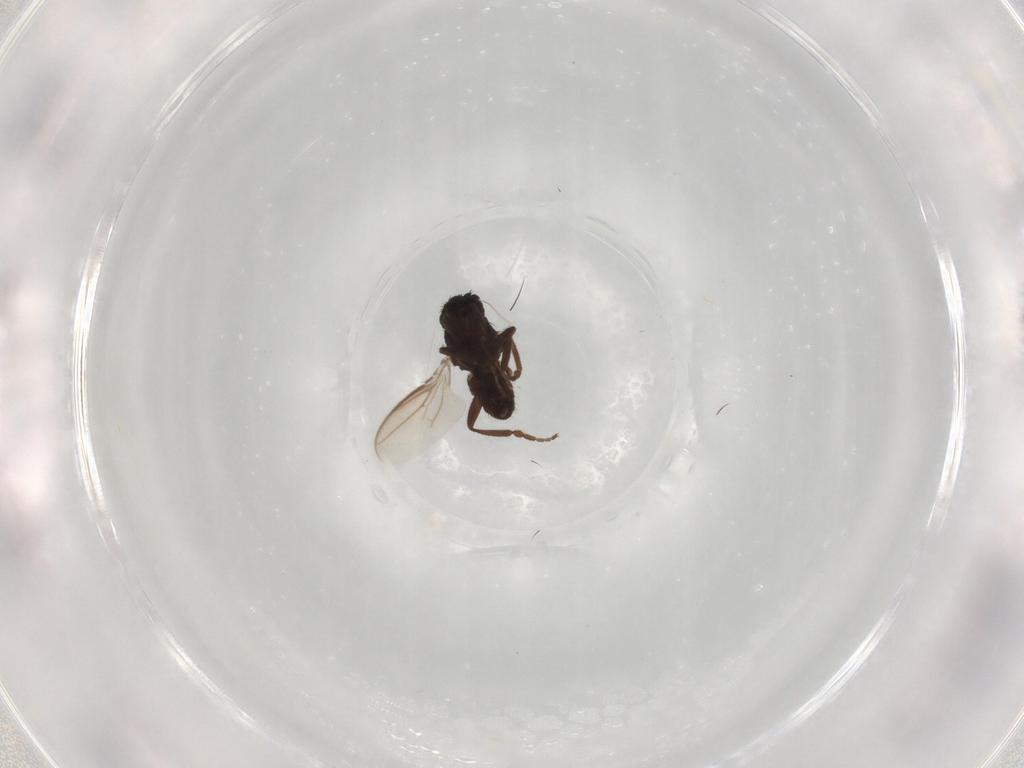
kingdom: Animalia
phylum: Arthropoda
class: Insecta
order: Diptera
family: Sphaeroceridae
